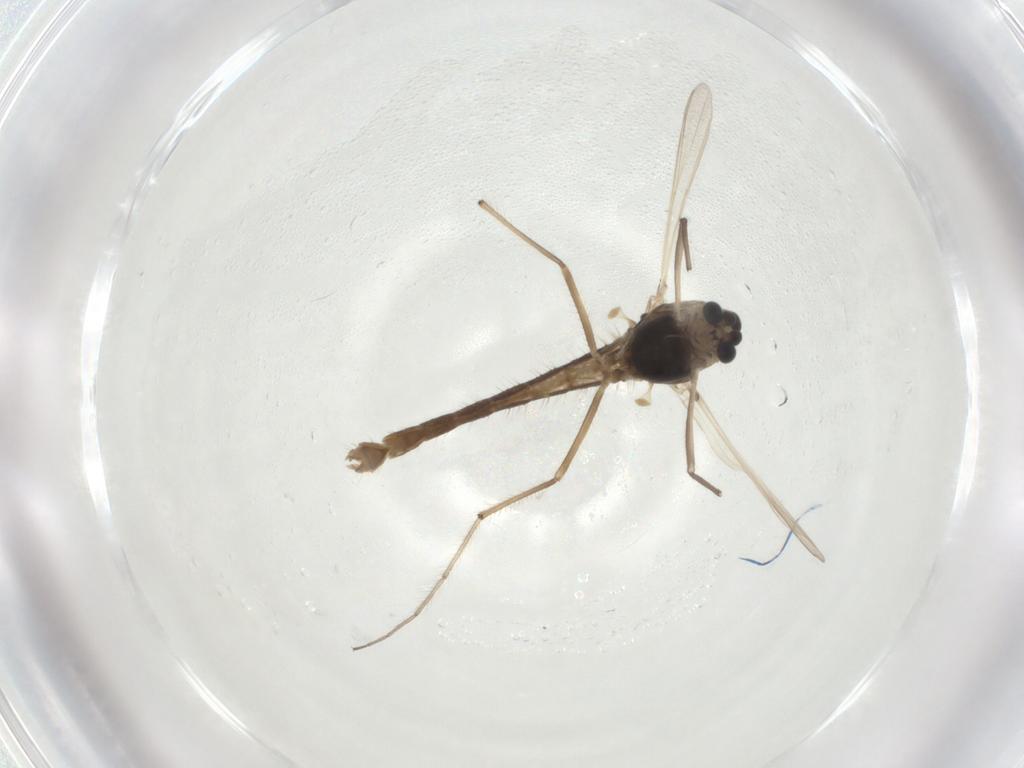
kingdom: Animalia
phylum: Arthropoda
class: Insecta
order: Diptera
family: Chironomidae
